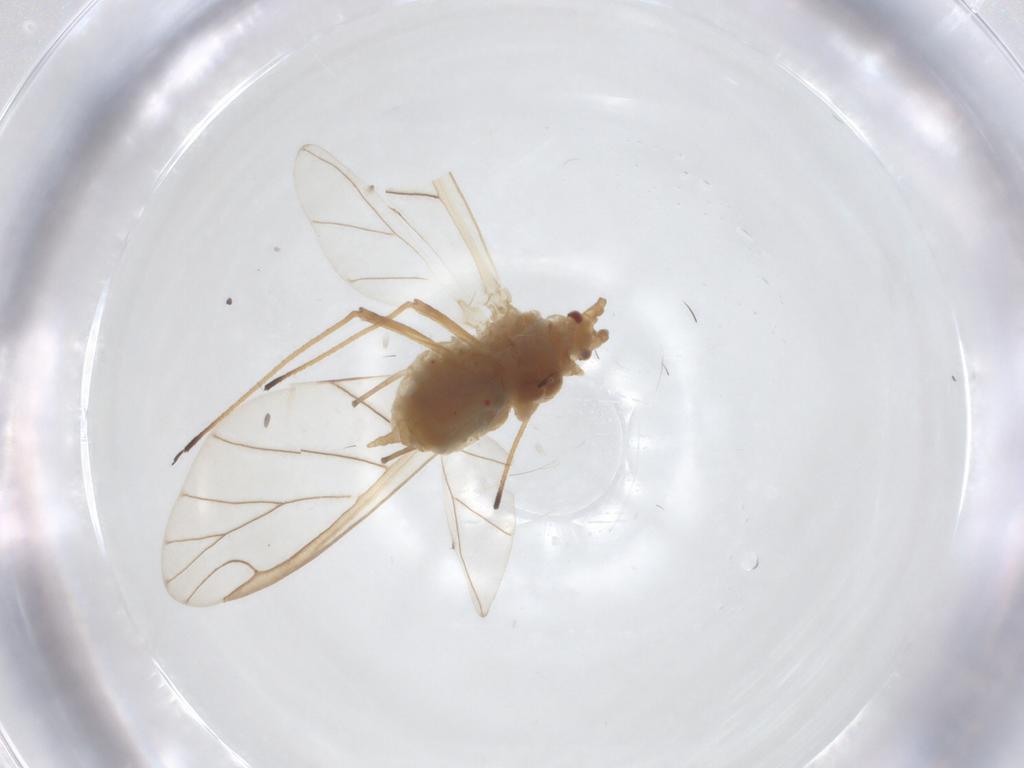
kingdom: Animalia
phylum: Arthropoda
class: Insecta
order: Hemiptera
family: Aphididae
